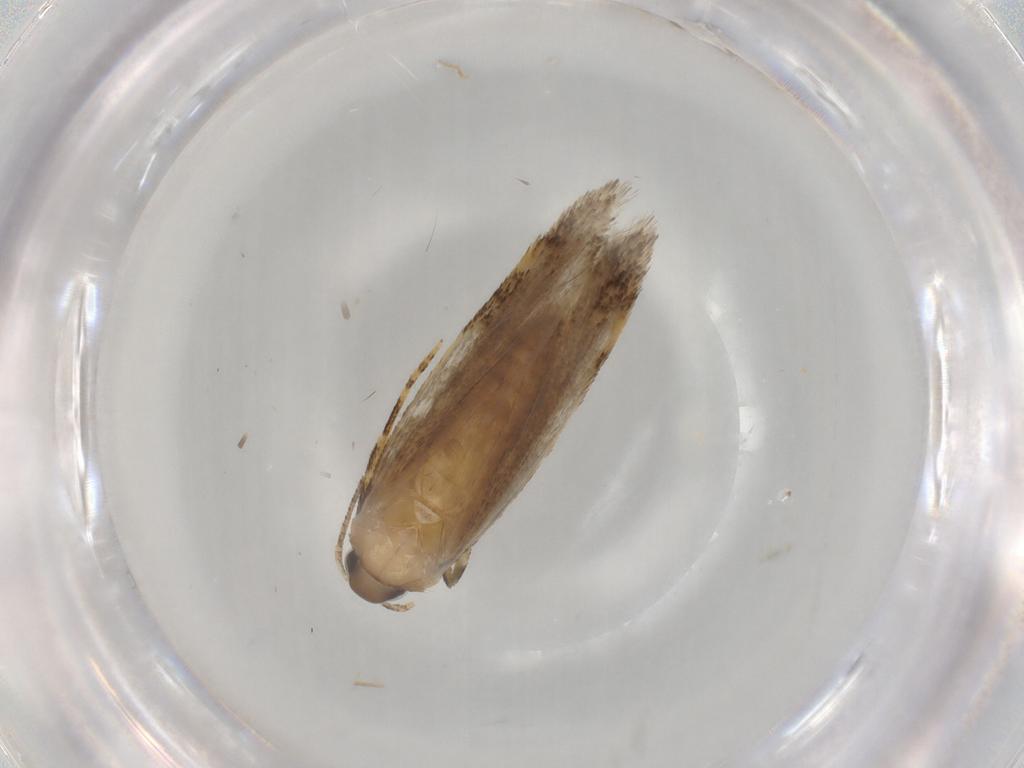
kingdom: Animalia
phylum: Arthropoda
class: Insecta
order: Lepidoptera
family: Autostichidae
